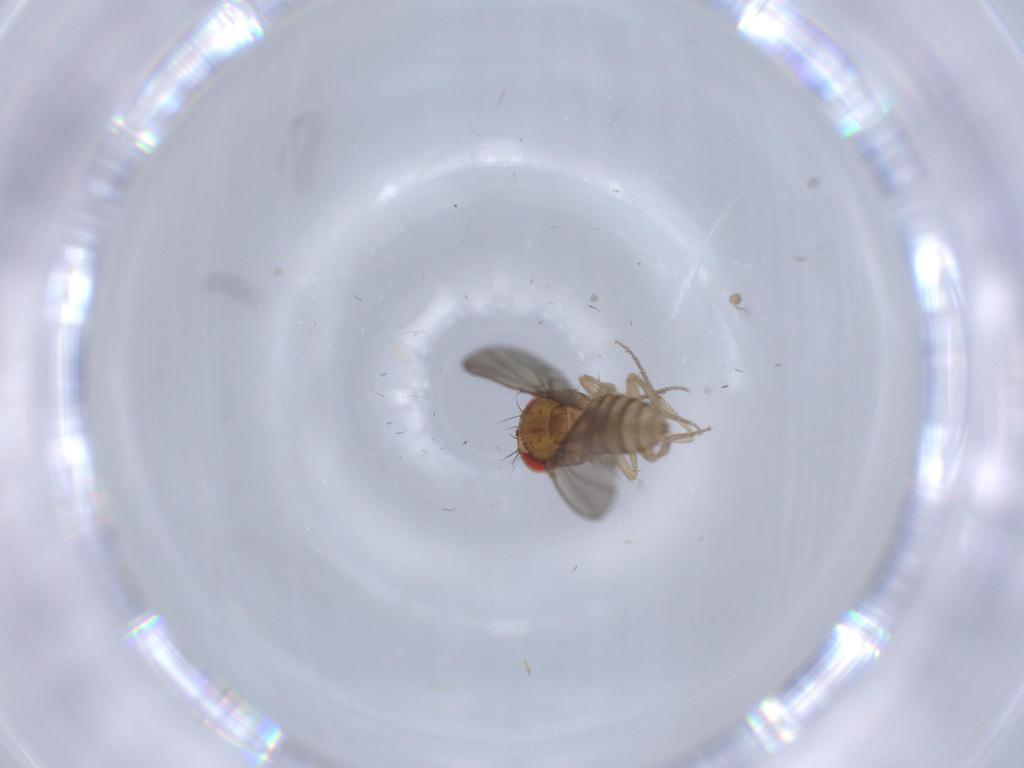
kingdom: Animalia
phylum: Arthropoda
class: Insecta
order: Diptera
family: Drosophilidae
